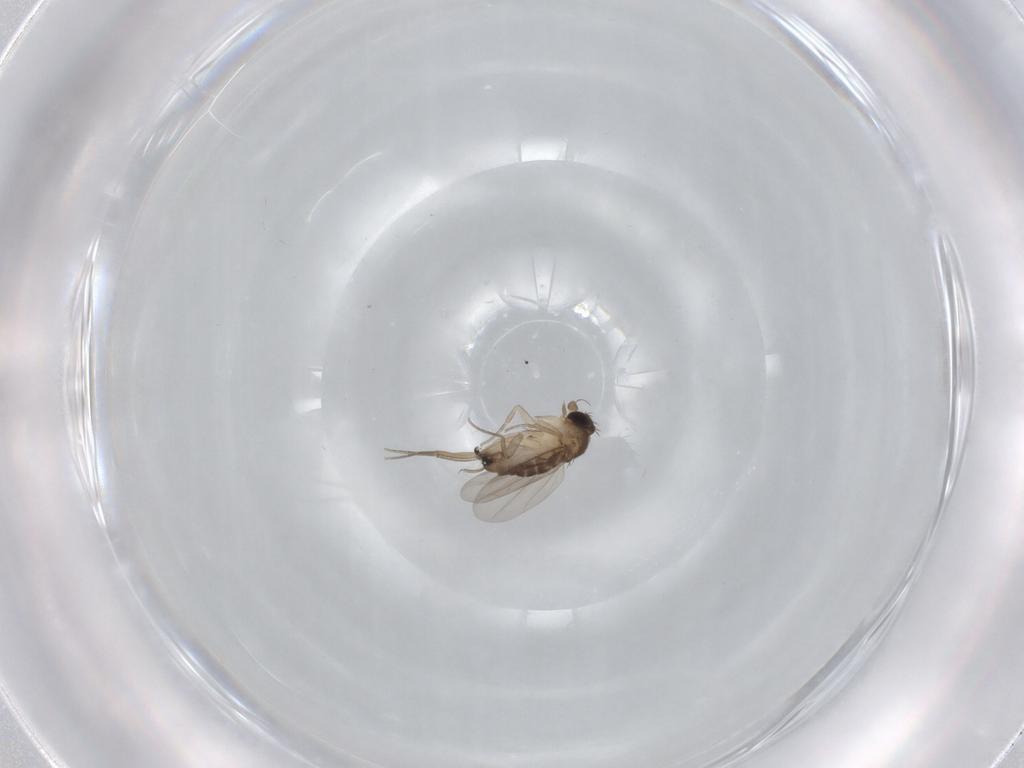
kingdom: Animalia
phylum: Arthropoda
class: Insecta
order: Diptera
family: Phoridae
